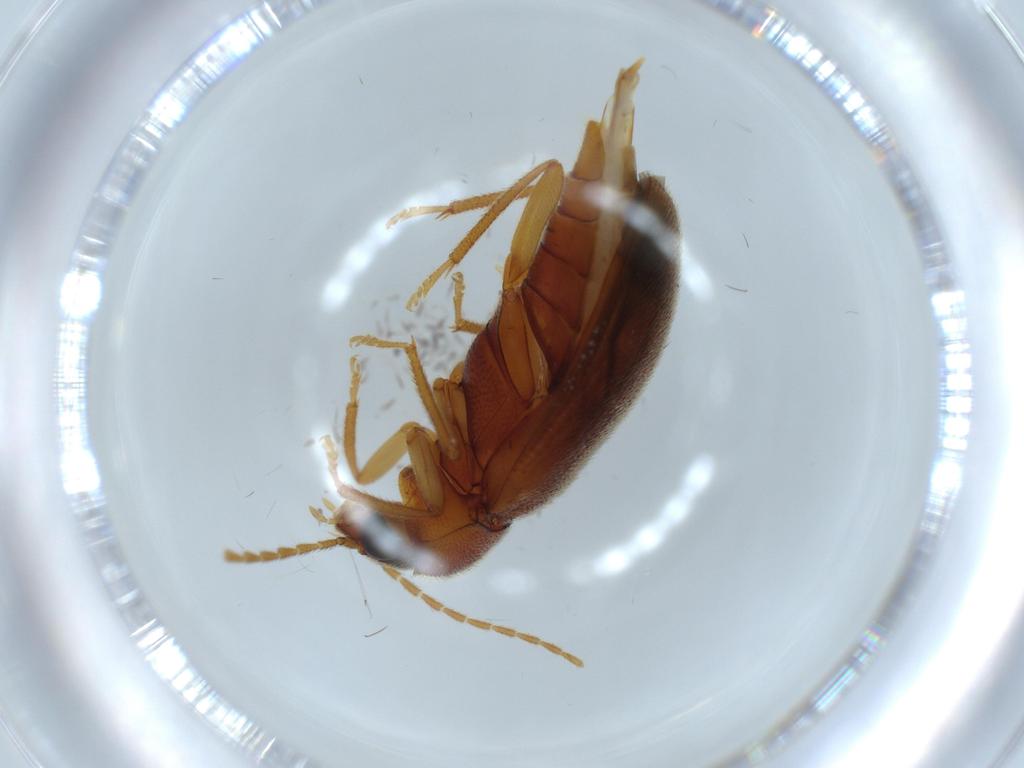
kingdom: Animalia
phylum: Arthropoda
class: Insecta
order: Coleoptera
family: Ptilodactylidae
